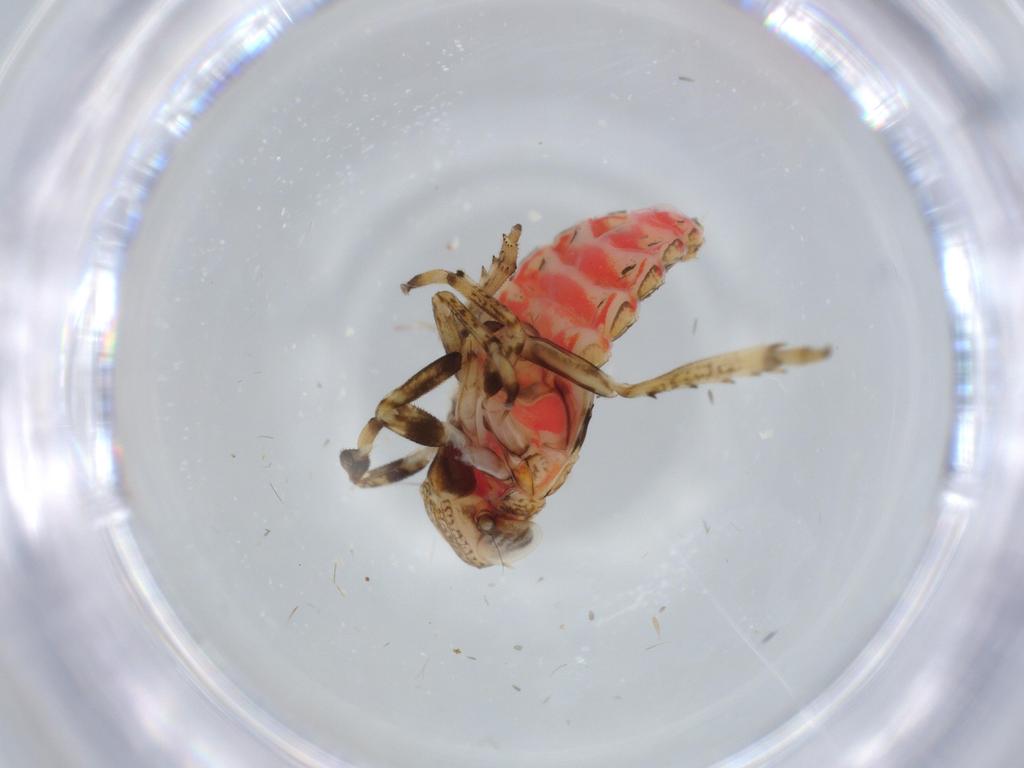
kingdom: Animalia
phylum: Arthropoda
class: Insecta
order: Hemiptera
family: Issidae
